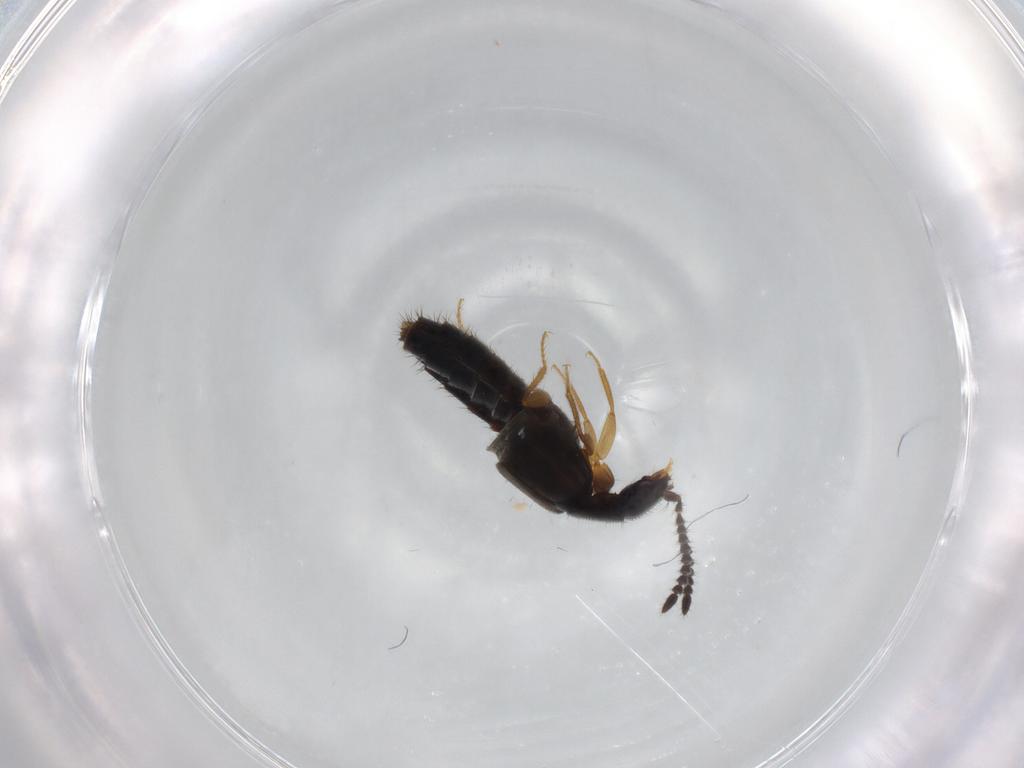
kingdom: Animalia
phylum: Arthropoda
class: Insecta
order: Coleoptera
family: Staphylinidae
